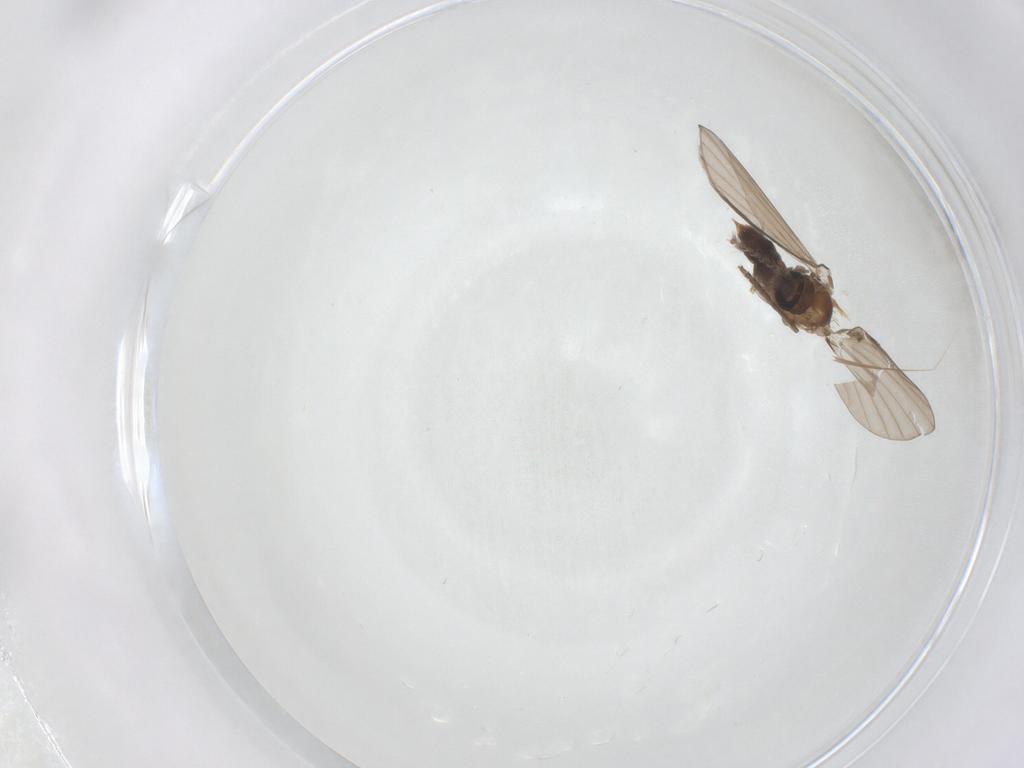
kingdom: Animalia
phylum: Arthropoda
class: Insecta
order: Diptera
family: Psychodidae
